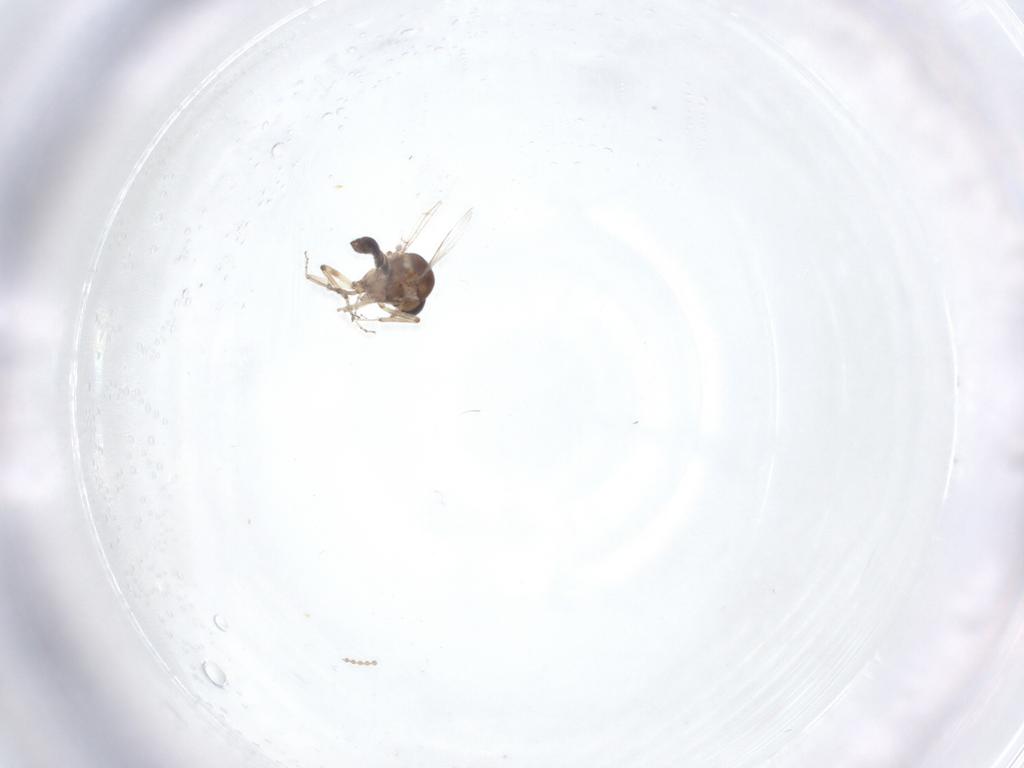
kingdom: Animalia
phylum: Arthropoda
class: Insecta
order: Diptera
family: Ceratopogonidae
